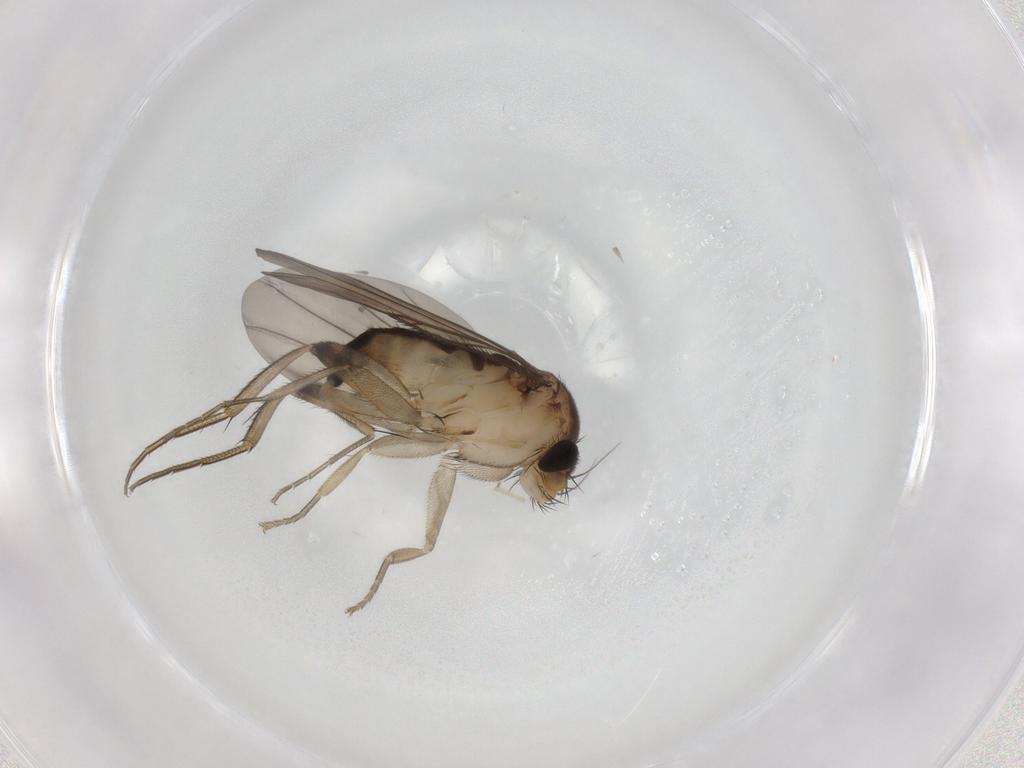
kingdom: Animalia
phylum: Arthropoda
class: Insecta
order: Diptera
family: Phoridae
